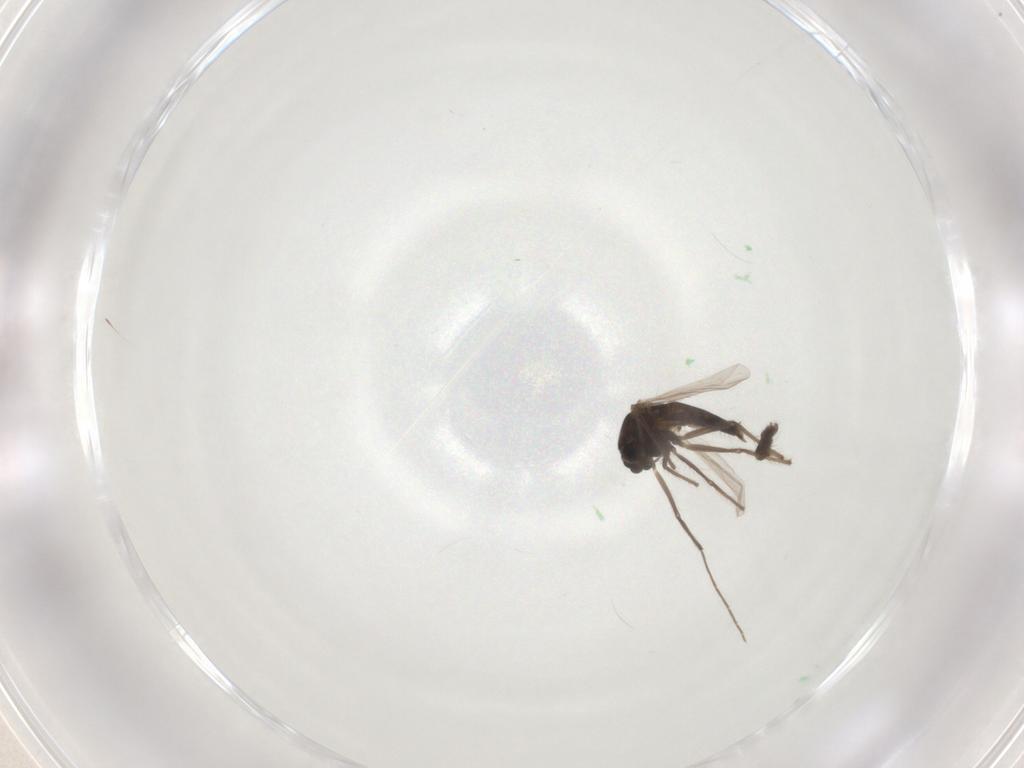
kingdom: Animalia
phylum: Arthropoda
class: Insecta
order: Diptera
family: Chironomidae
